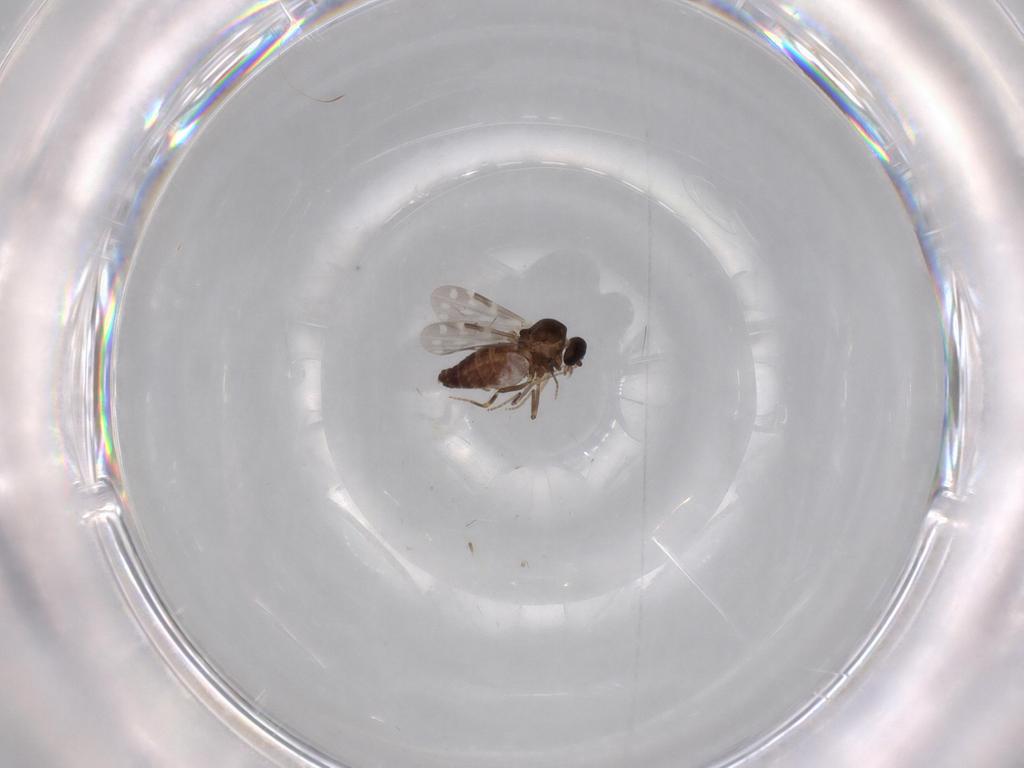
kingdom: Animalia
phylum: Arthropoda
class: Insecta
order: Diptera
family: Ceratopogonidae
